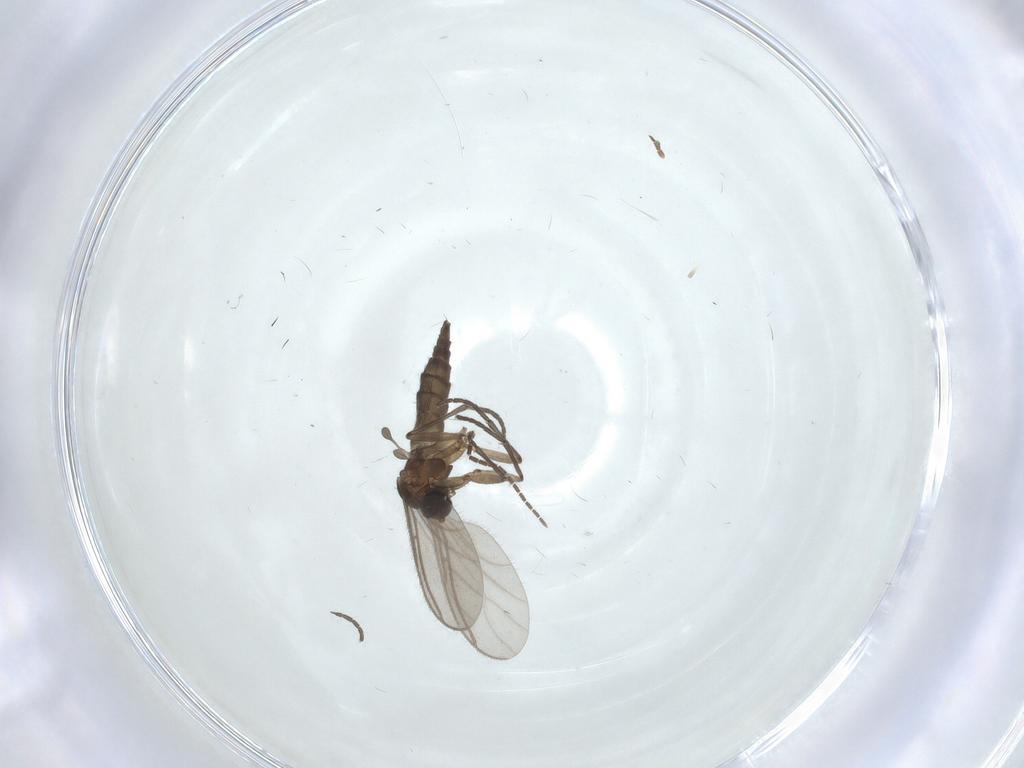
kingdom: Animalia
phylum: Arthropoda
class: Insecta
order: Diptera
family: Sciaridae
